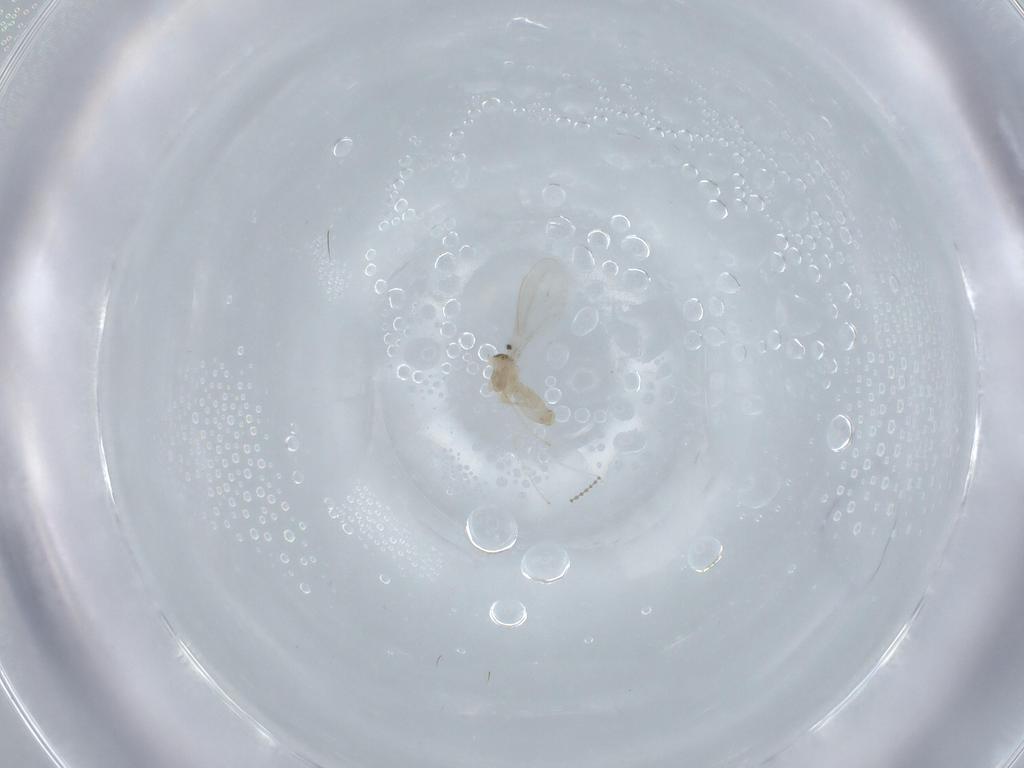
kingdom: Animalia
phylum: Arthropoda
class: Insecta
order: Diptera
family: Cecidomyiidae
